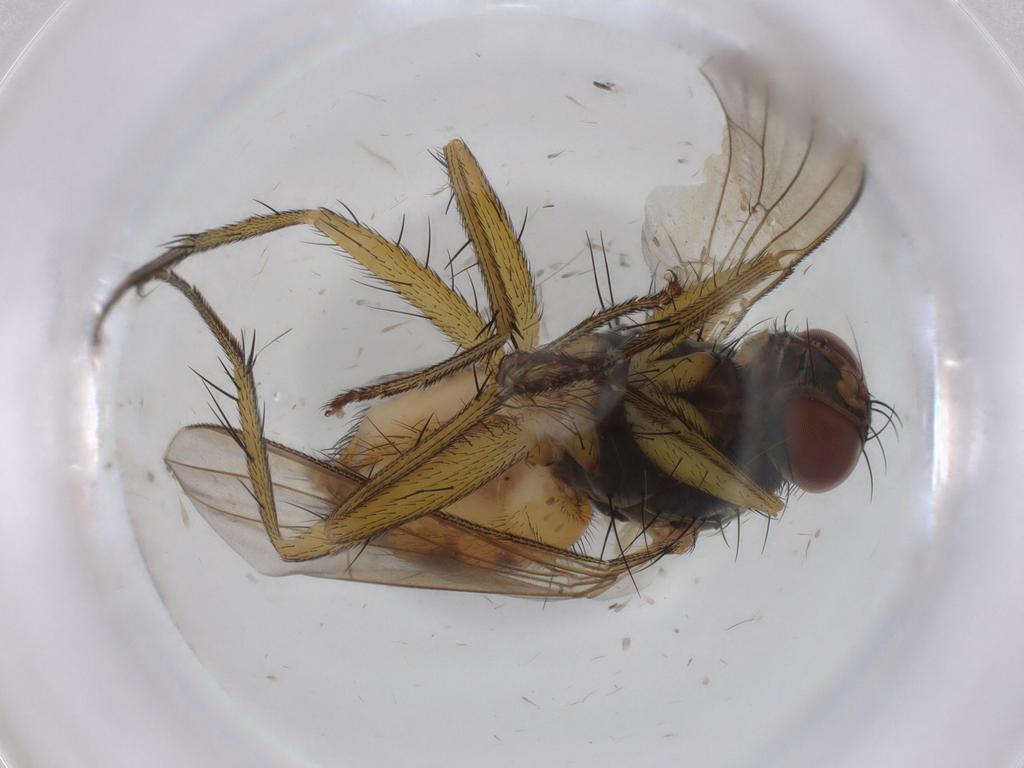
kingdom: Animalia
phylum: Arthropoda
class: Insecta
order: Diptera
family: Muscidae
